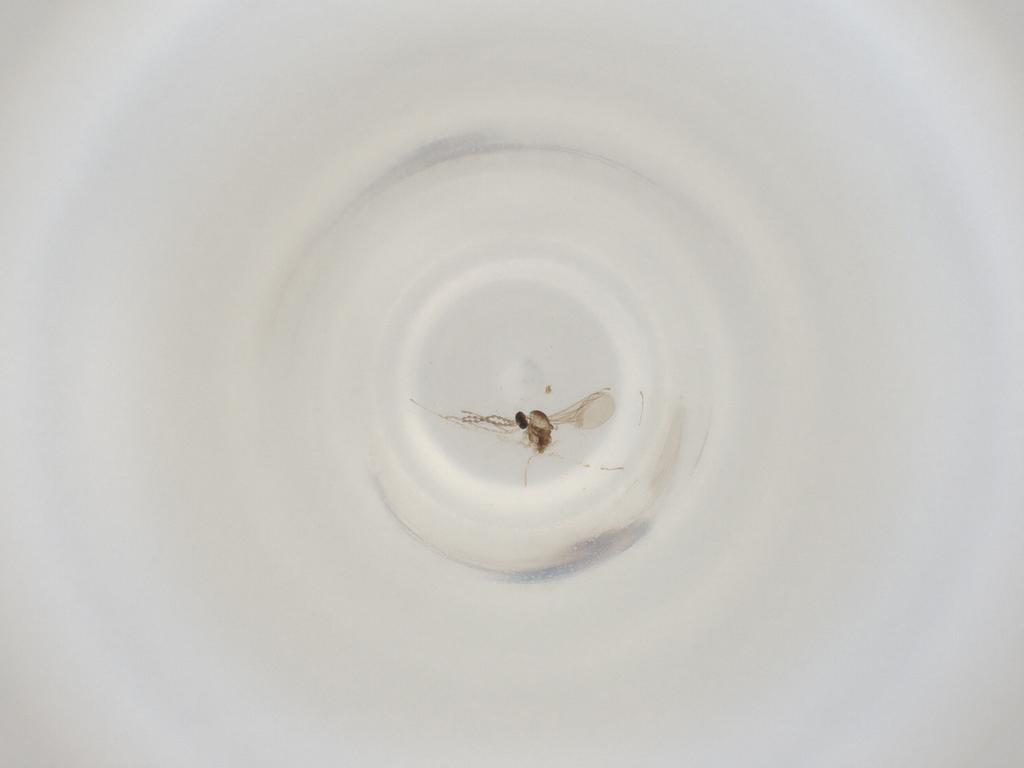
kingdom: Animalia
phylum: Arthropoda
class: Insecta
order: Diptera
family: Cecidomyiidae
